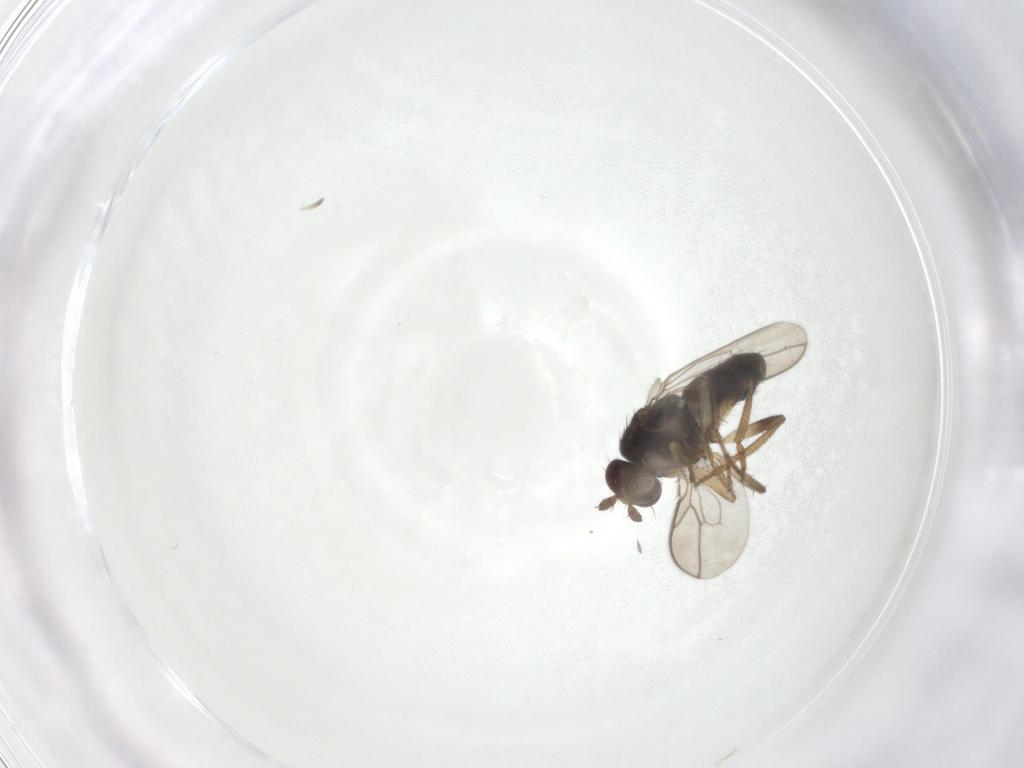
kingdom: Animalia
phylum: Arthropoda
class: Insecta
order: Diptera
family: Sphaeroceridae
